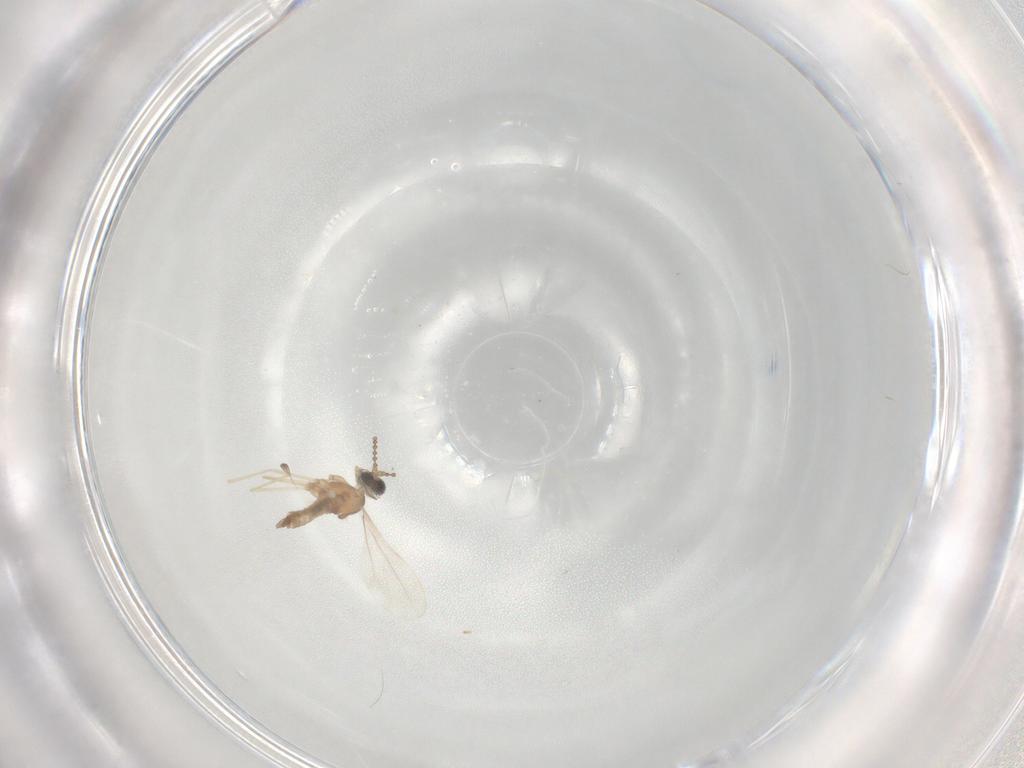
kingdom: Animalia
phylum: Arthropoda
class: Insecta
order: Diptera
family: Cecidomyiidae
